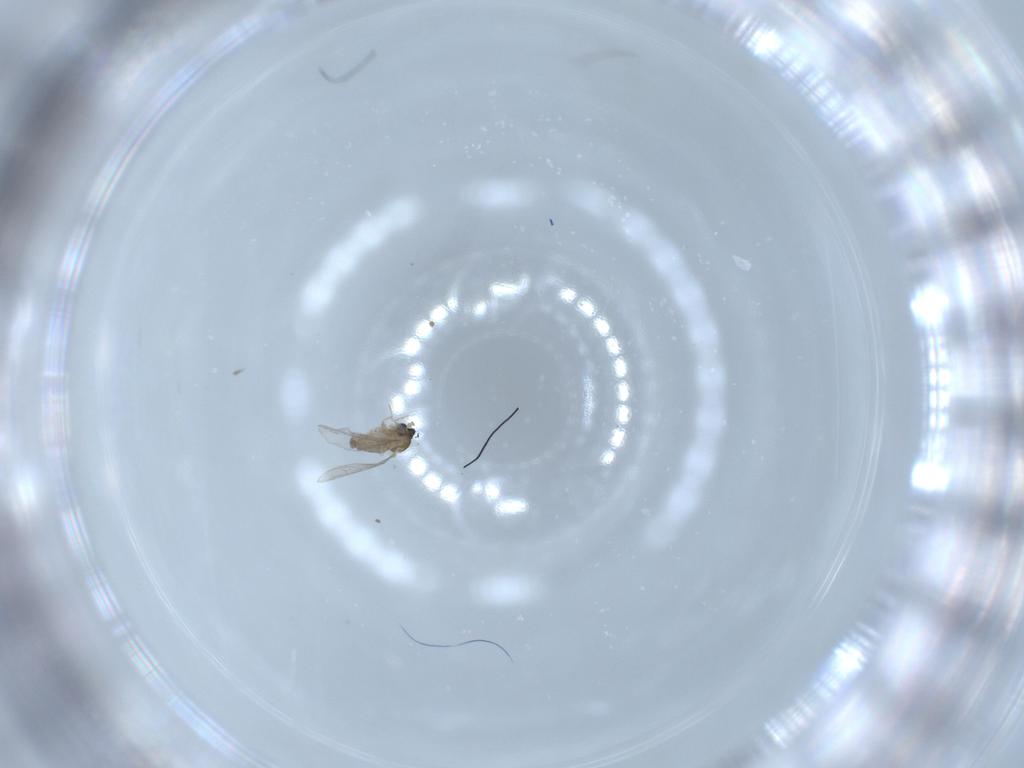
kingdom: Animalia
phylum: Arthropoda
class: Insecta
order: Diptera
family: Cecidomyiidae
